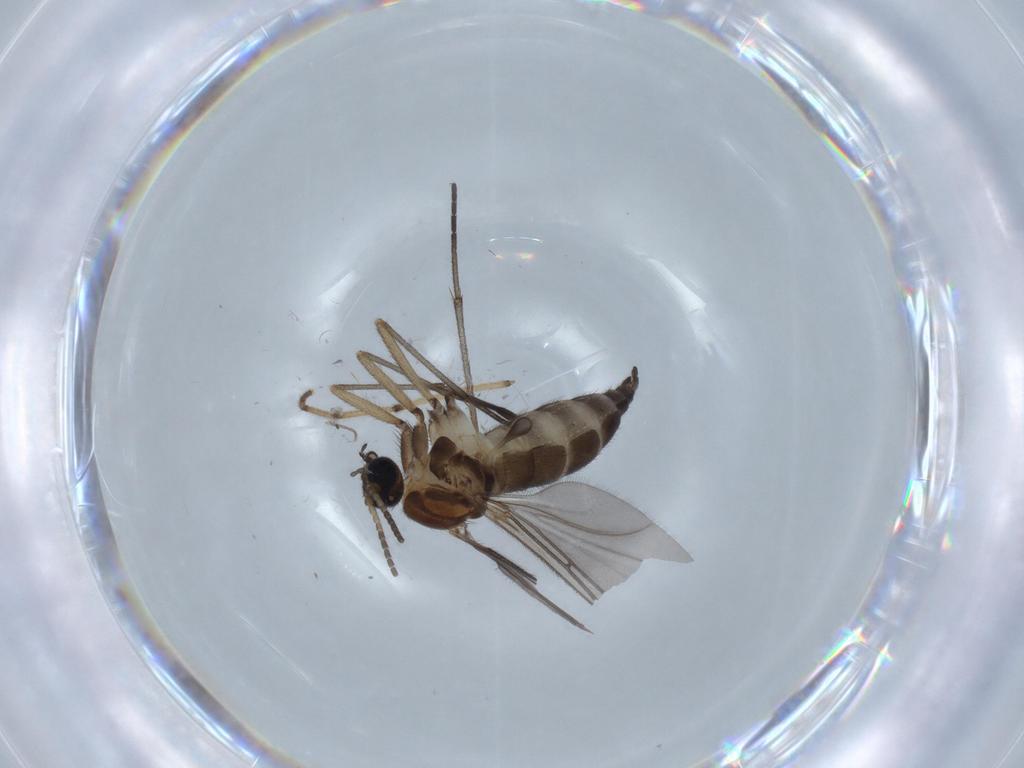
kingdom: Animalia
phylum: Arthropoda
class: Insecta
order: Diptera
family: Sciaridae
